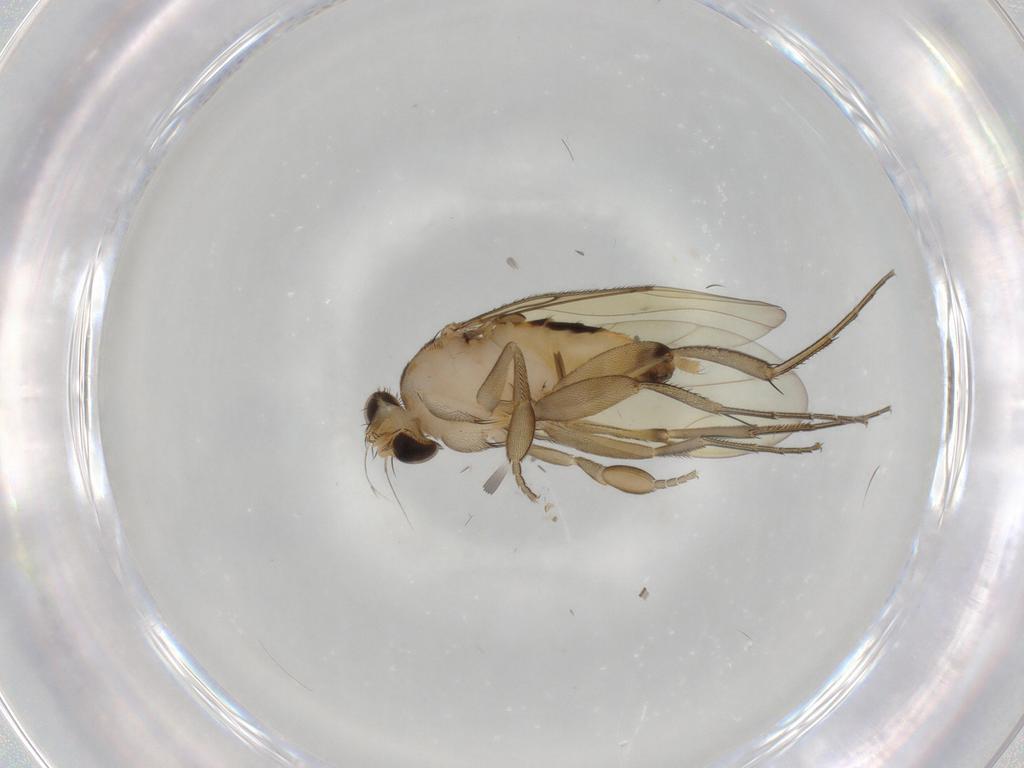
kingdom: Animalia
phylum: Arthropoda
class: Insecta
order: Diptera
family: Phoridae
